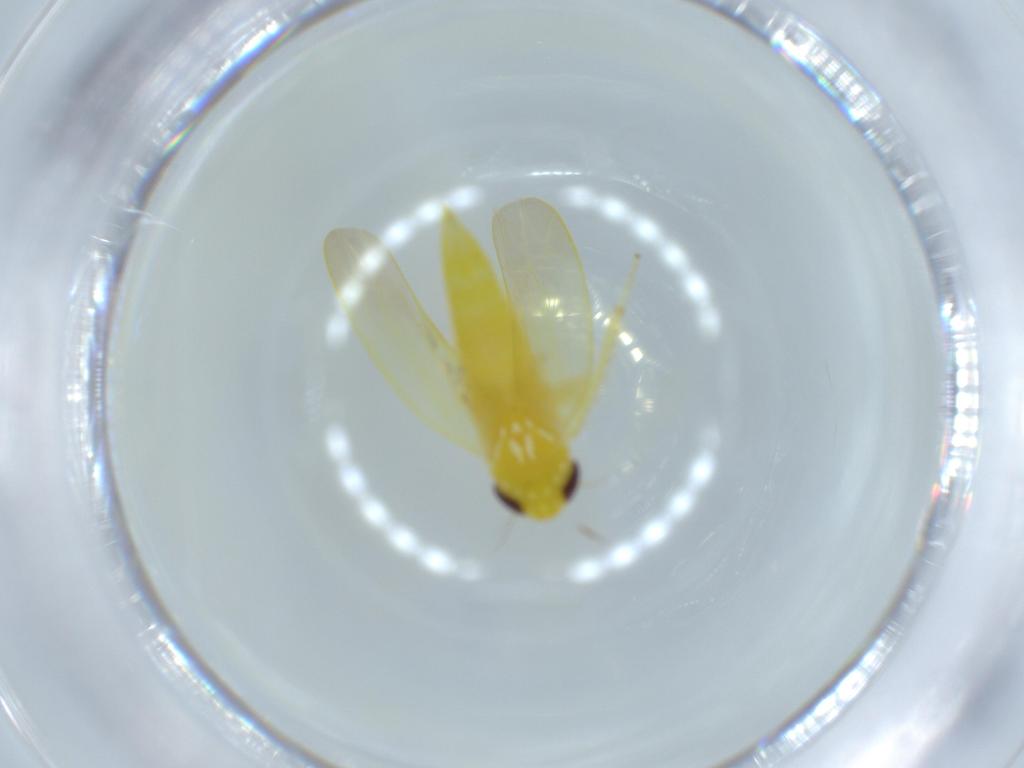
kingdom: Animalia
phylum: Arthropoda
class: Insecta
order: Hemiptera
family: Cicadellidae
